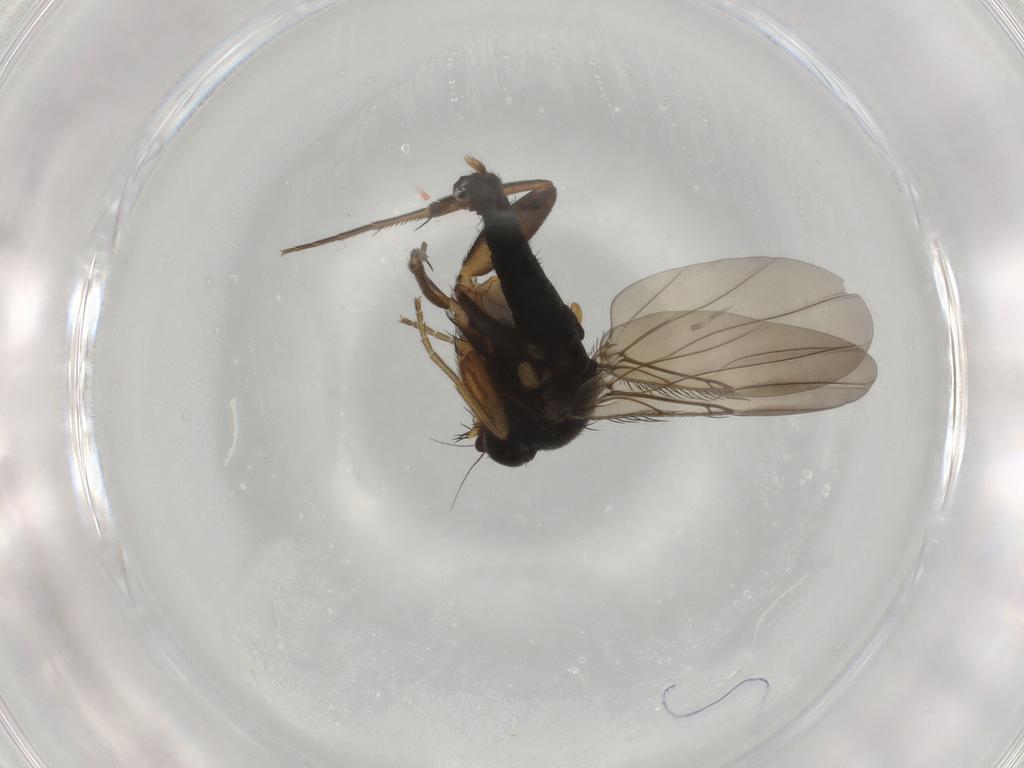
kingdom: Animalia
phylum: Arthropoda
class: Insecta
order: Diptera
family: Phoridae
